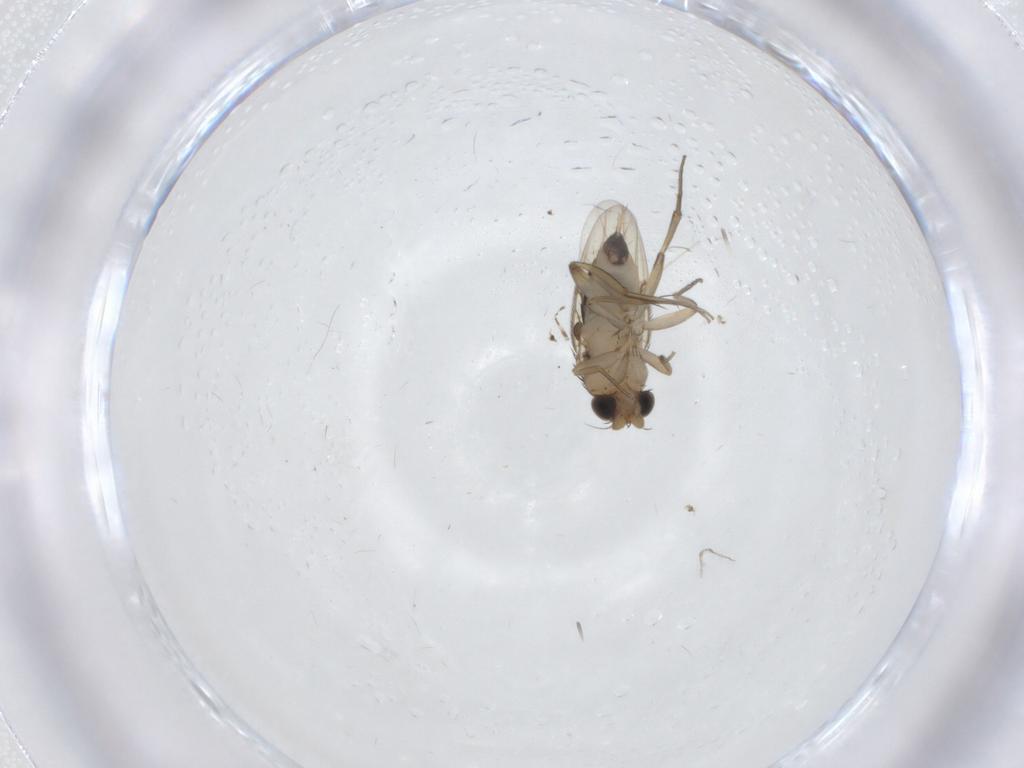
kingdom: Animalia
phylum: Arthropoda
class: Insecta
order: Diptera
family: Phoridae
